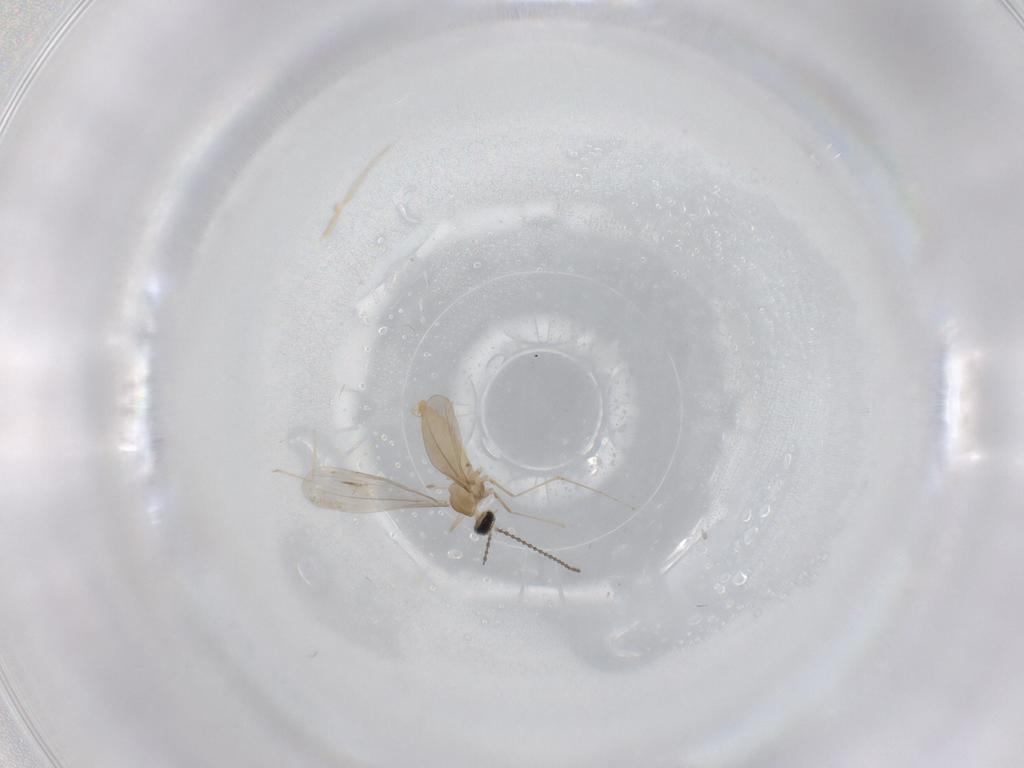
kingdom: Animalia
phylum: Arthropoda
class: Insecta
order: Diptera
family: Cecidomyiidae
